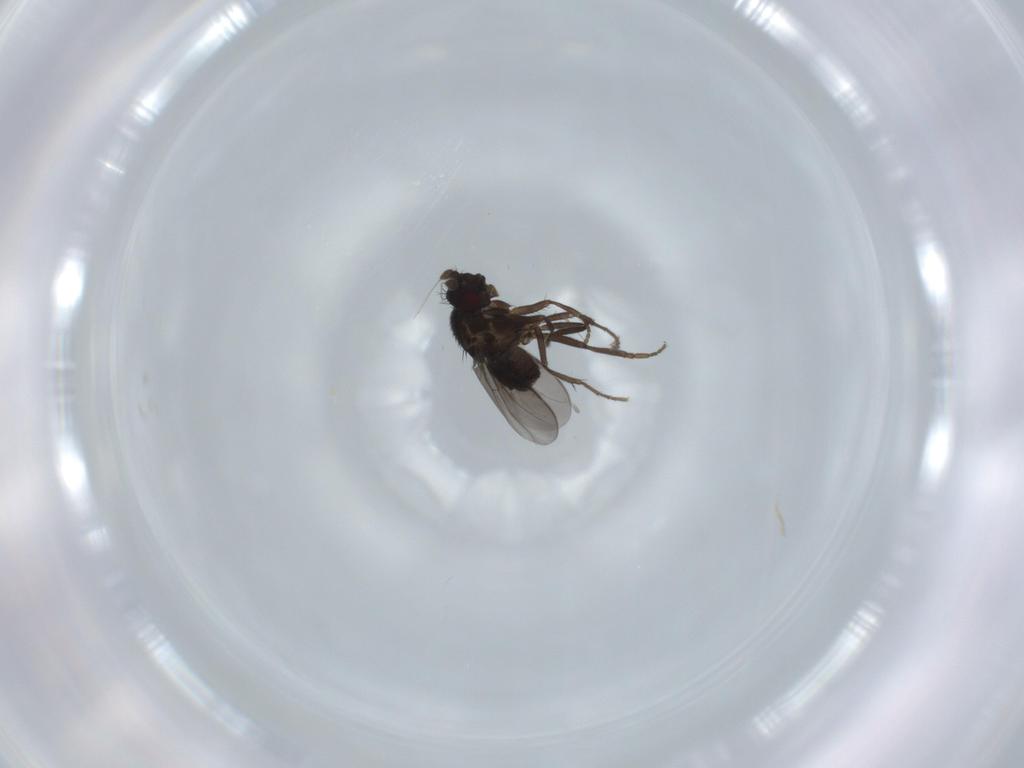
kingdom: Animalia
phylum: Arthropoda
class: Insecta
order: Diptera
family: Sphaeroceridae
